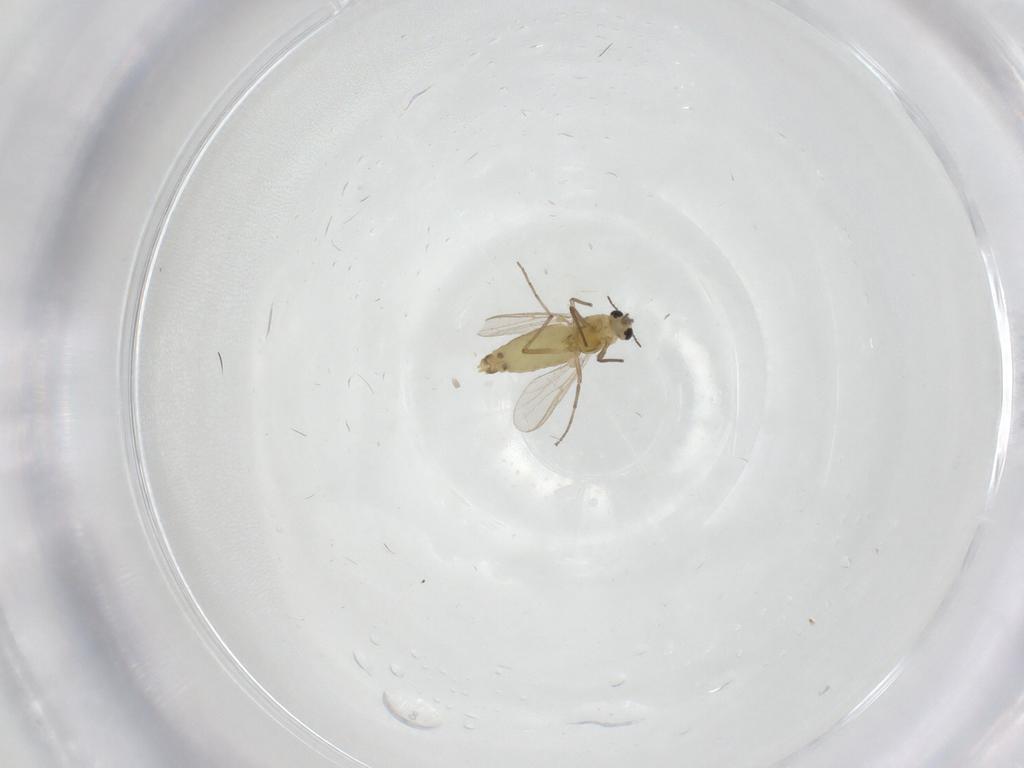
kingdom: Animalia
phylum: Arthropoda
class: Insecta
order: Diptera
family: Chironomidae
